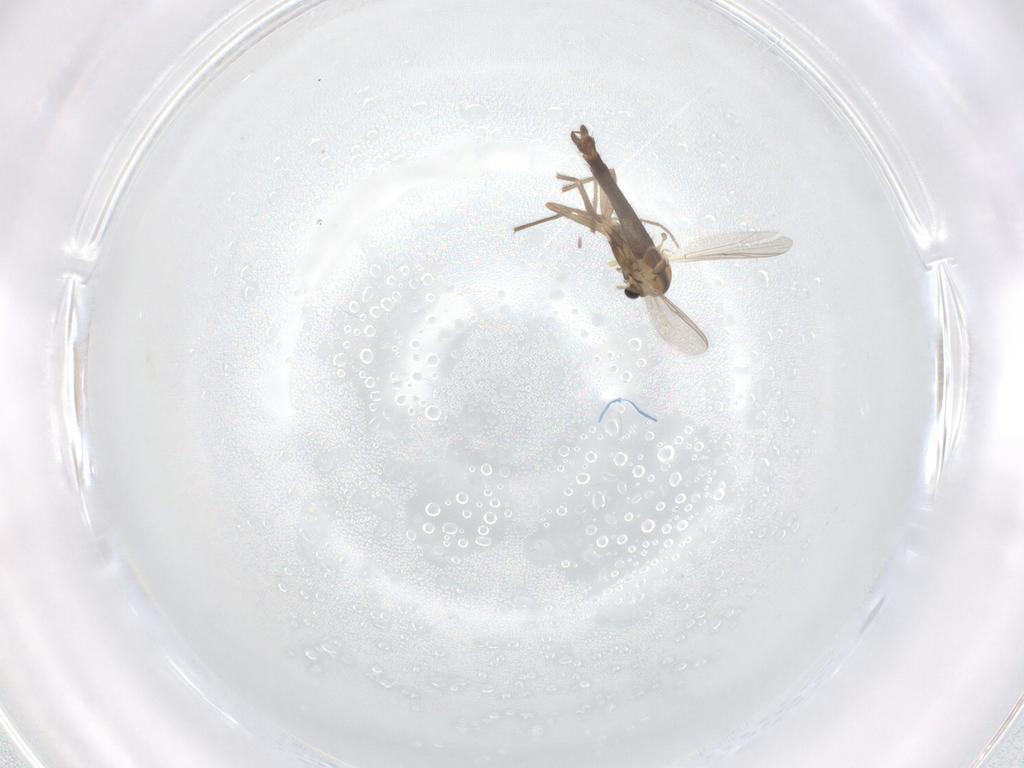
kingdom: Animalia
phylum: Arthropoda
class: Insecta
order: Diptera
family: Chironomidae
